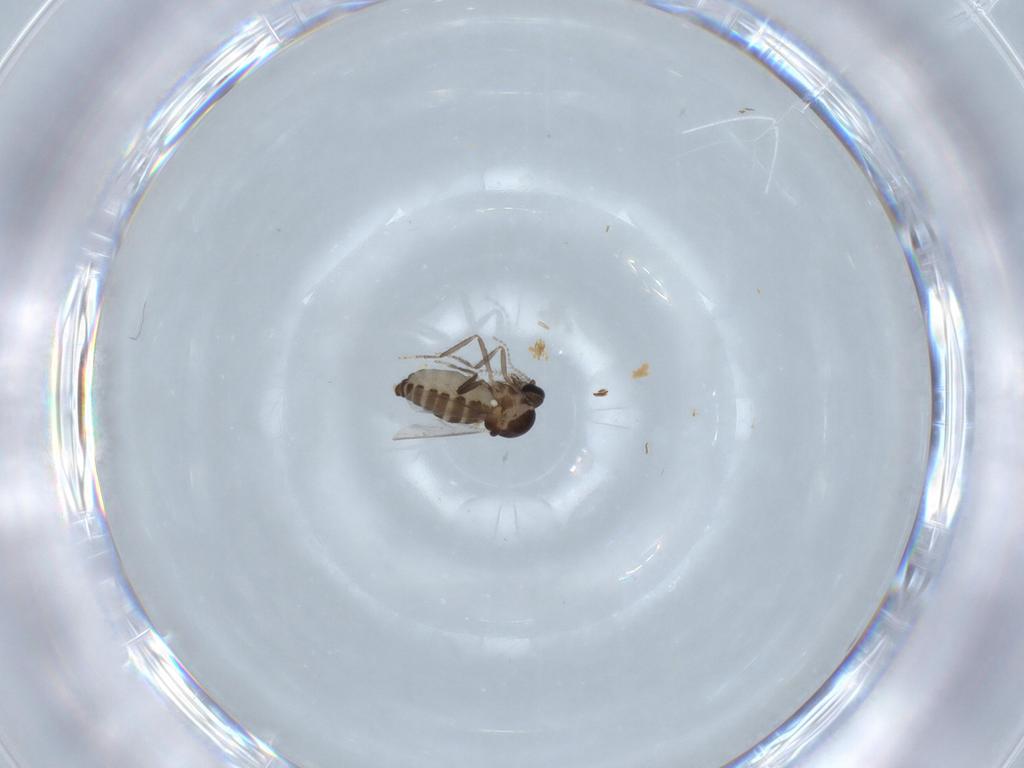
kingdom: Animalia
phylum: Arthropoda
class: Insecta
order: Diptera
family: Ceratopogonidae
